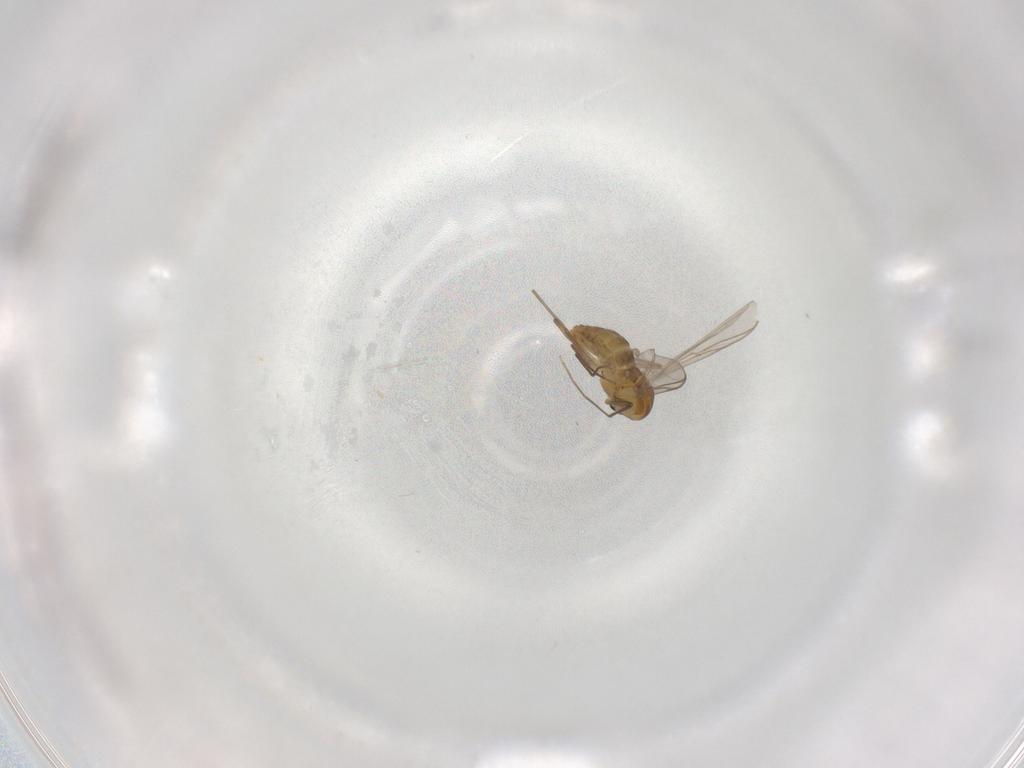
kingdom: Animalia
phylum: Arthropoda
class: Insecta
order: Diptera
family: Chironomidae
